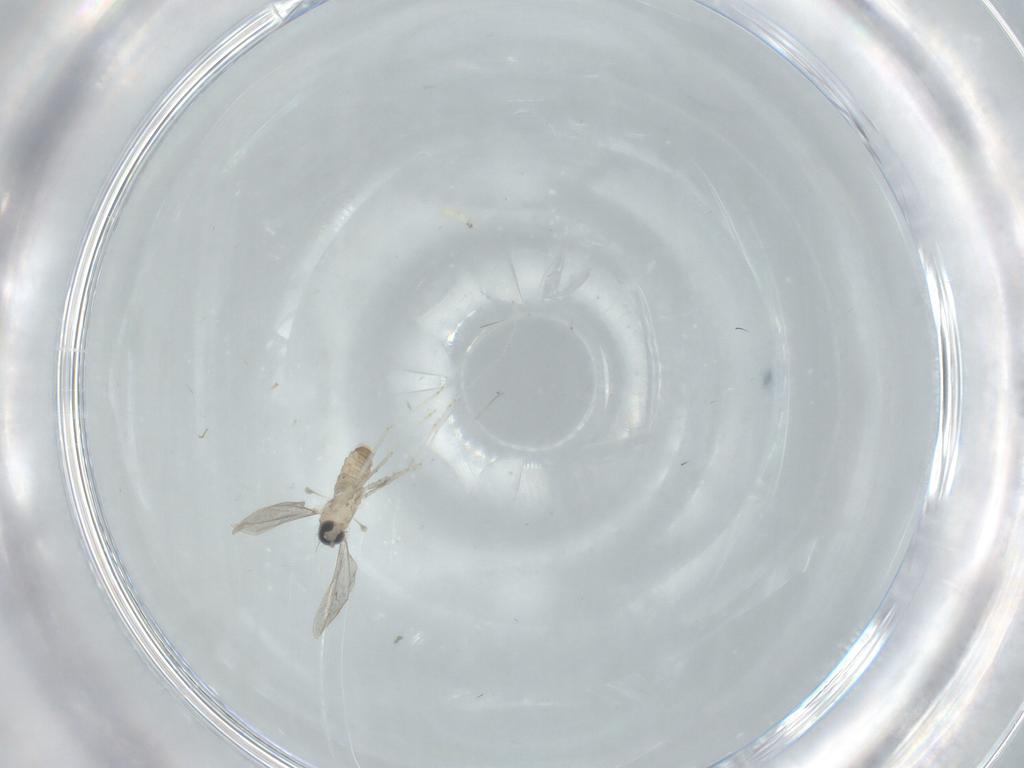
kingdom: Animalia
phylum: Arthropoda
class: Insecta
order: Diptera
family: Cecidomyiidae
